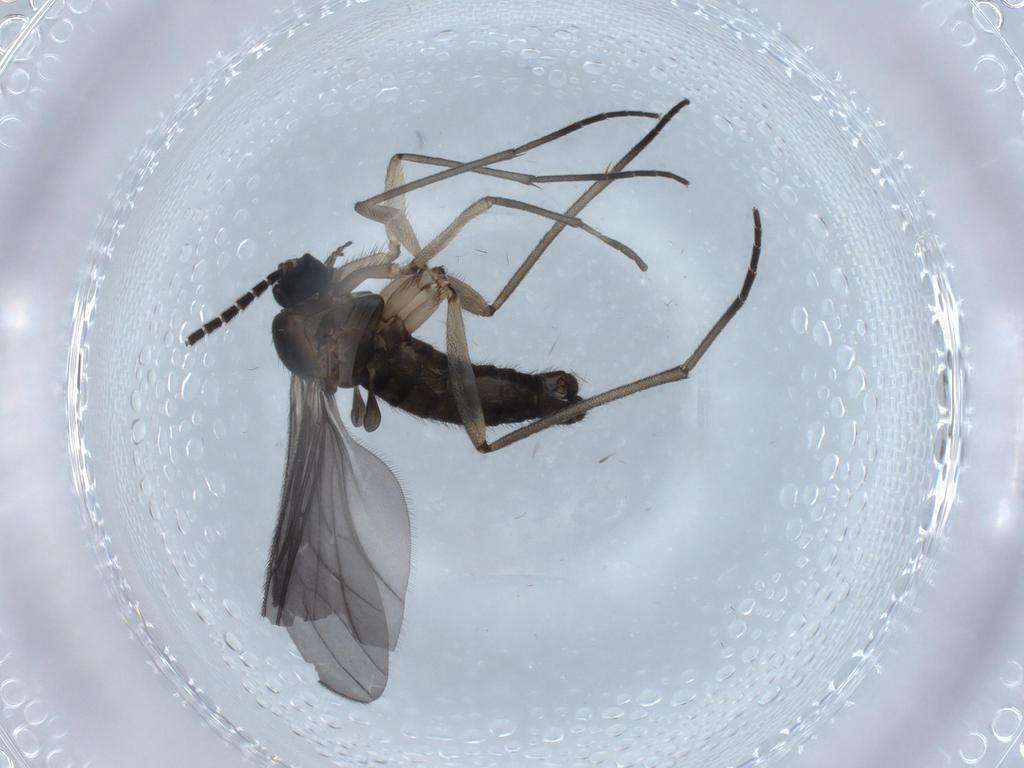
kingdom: Animalia
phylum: Arthropoda
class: Insecta
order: Diptera
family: Sciaridae
